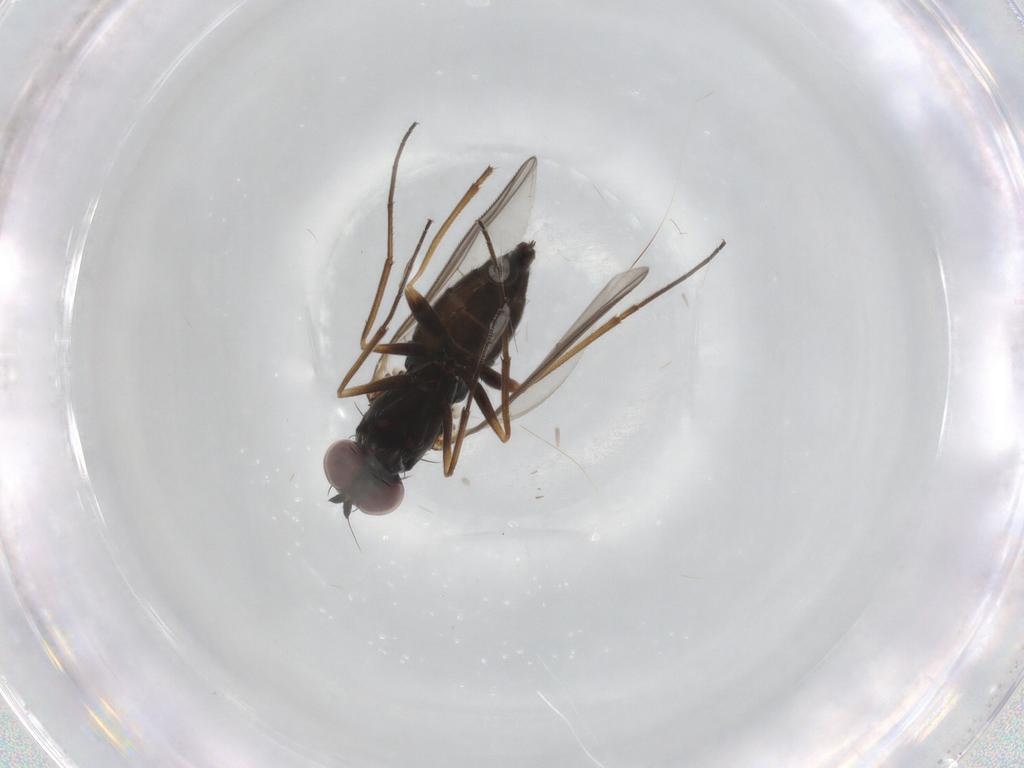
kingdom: Animalia
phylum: Arthropoda
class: Insecta
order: Diptera
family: Dolichopodidae
